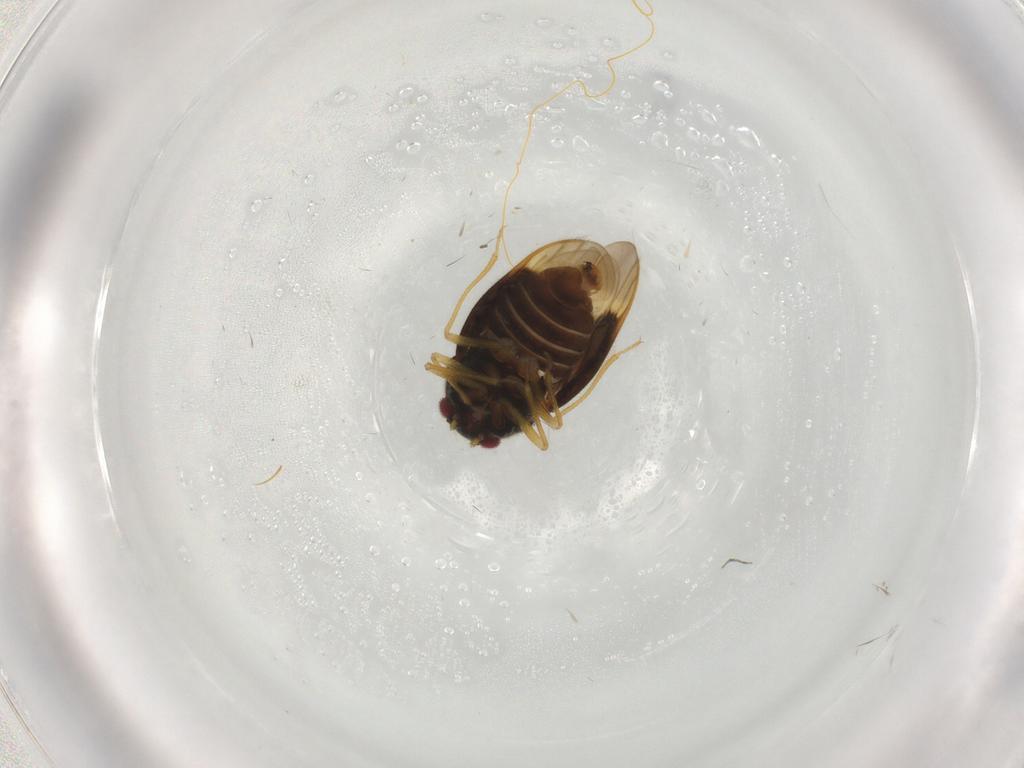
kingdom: Animalia
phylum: Arthropoda
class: Insecta
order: Hemiptera
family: Schizopteridae
